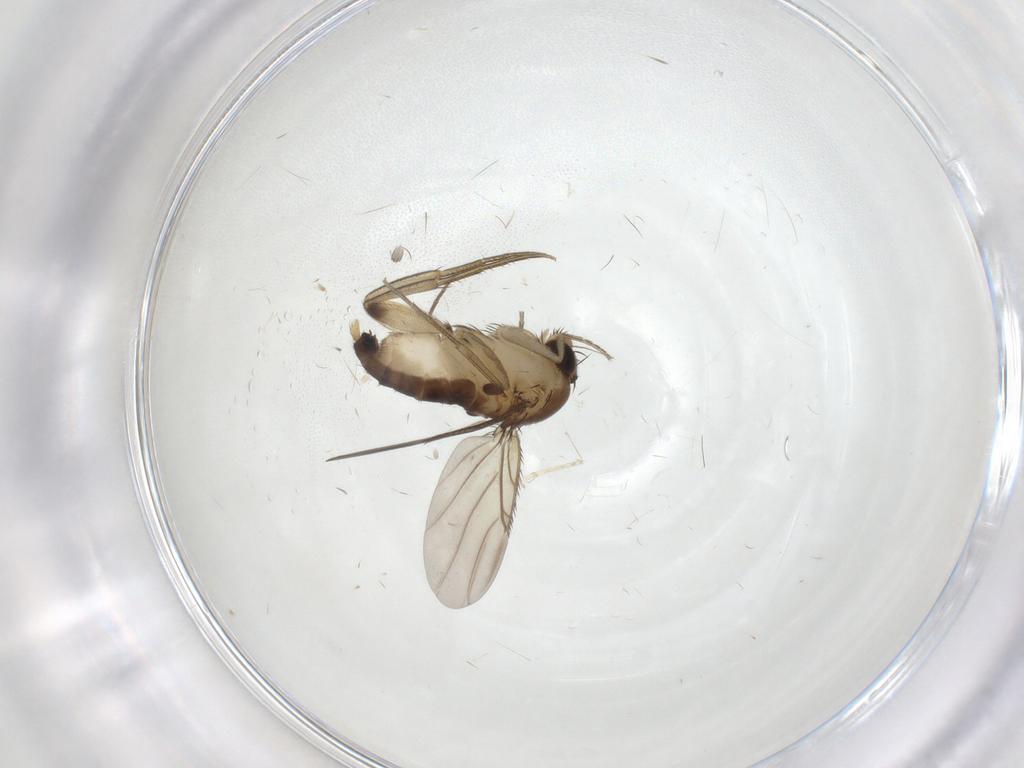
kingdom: Animalia
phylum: Arthropoda
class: Insecta
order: Diptera
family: Phoridae
